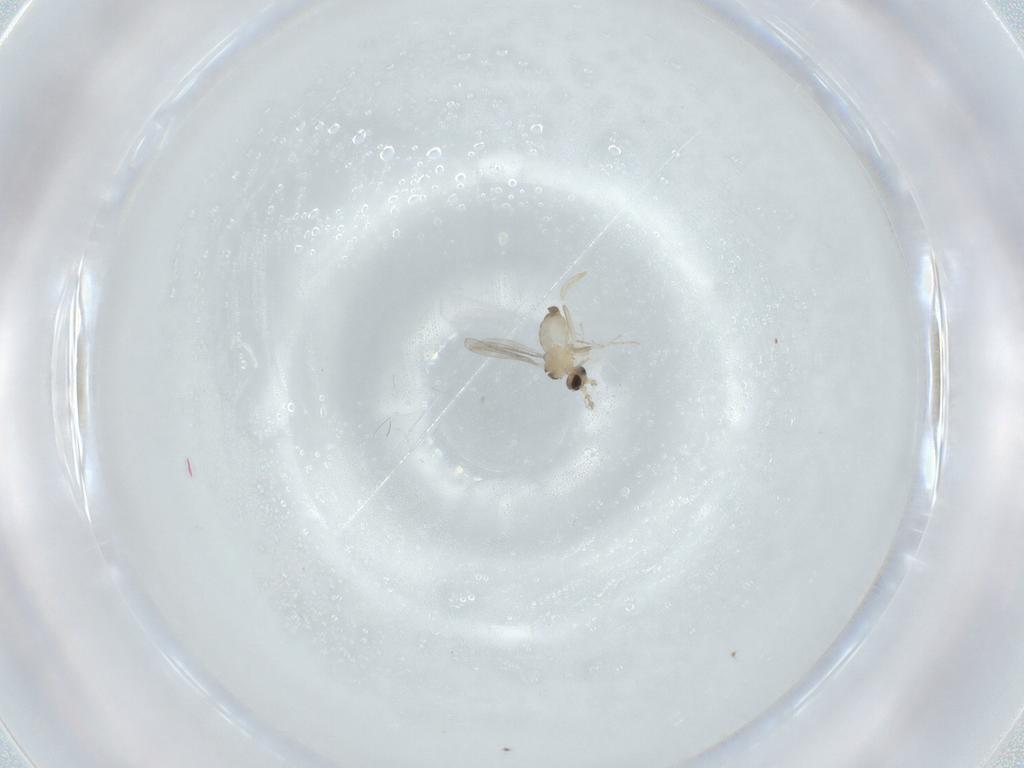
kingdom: Animalia
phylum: Arthropoda
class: Insecta
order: Diptera
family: Cecidomyiidae
